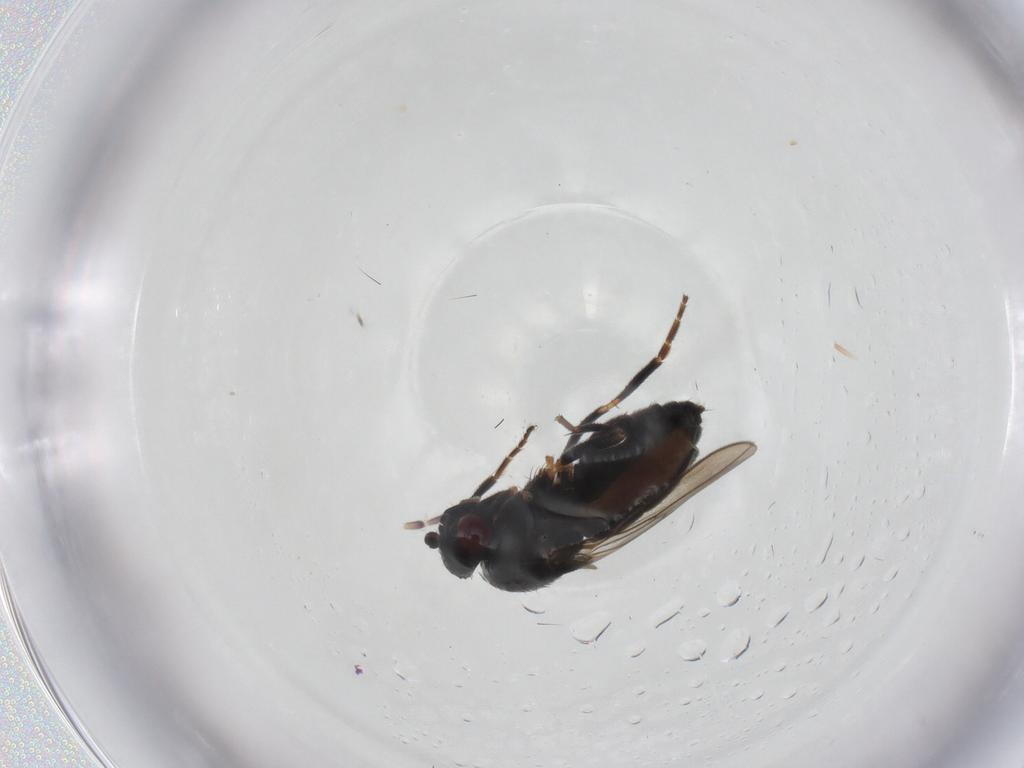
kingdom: Animalia
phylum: Arthropoda
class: Insecta
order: Diptera
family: Sphaeroceridae
